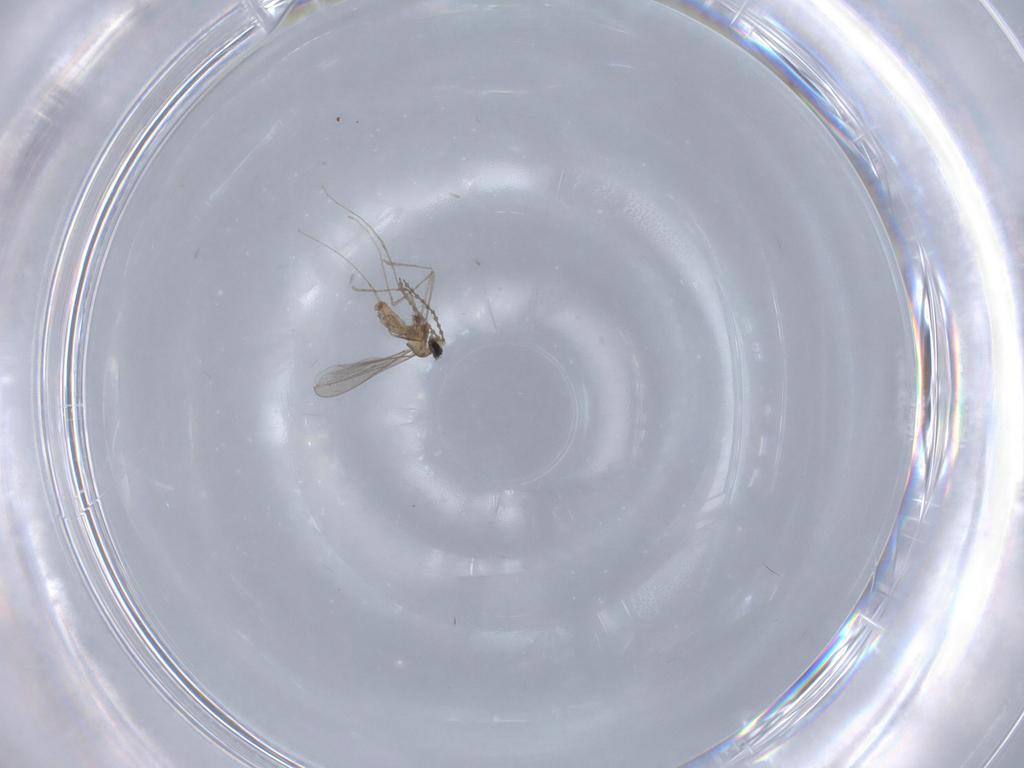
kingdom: Animalia
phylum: Arthropoda
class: Insecta
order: Diptera
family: Cecidomyiidae
